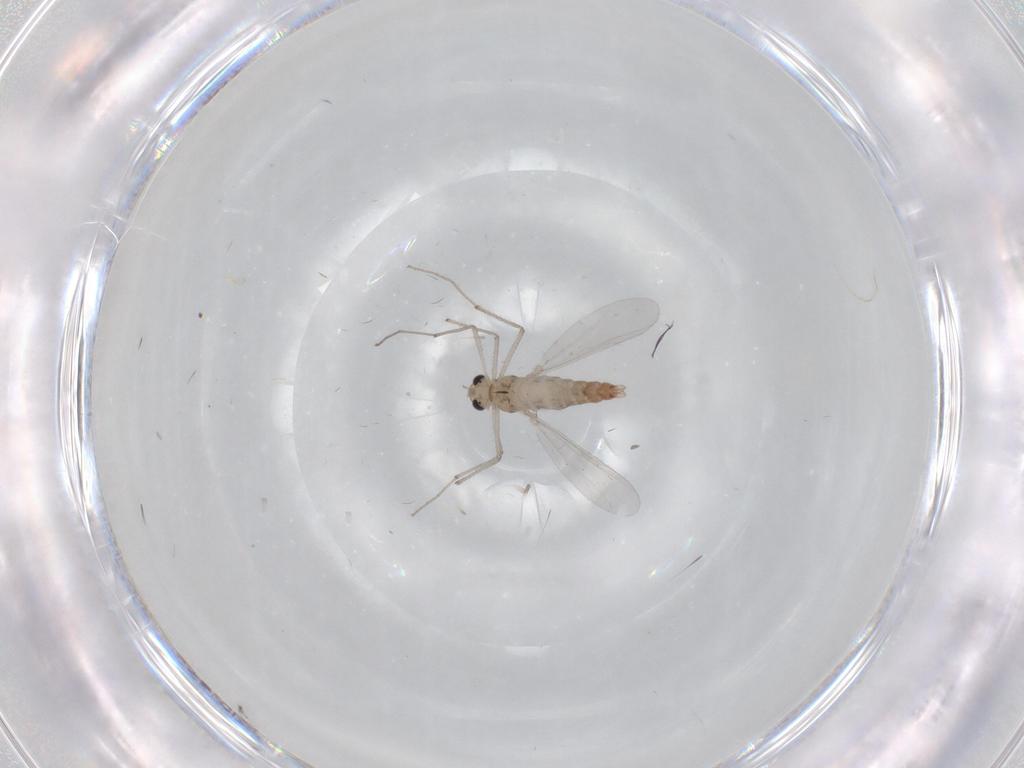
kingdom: Animalia
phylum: Arthropoda
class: Insecta
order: Diptera
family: Chironomidae
